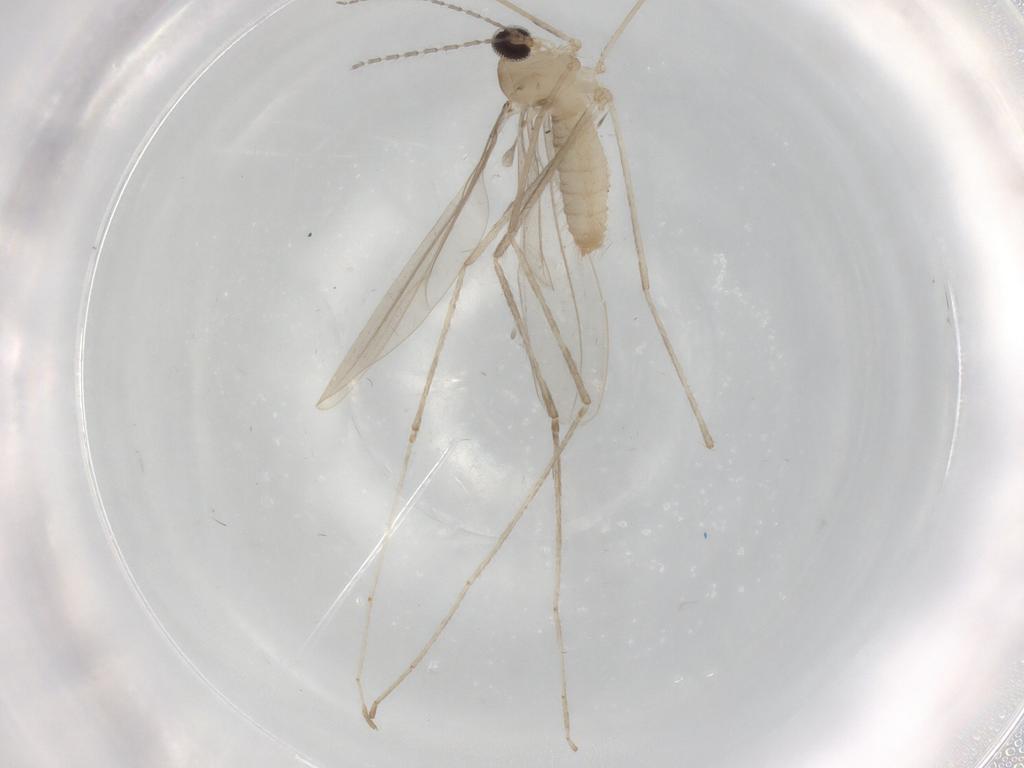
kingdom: Animalia
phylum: Arthropoda
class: Insecta
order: Diptera
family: Cecidomyiidae
